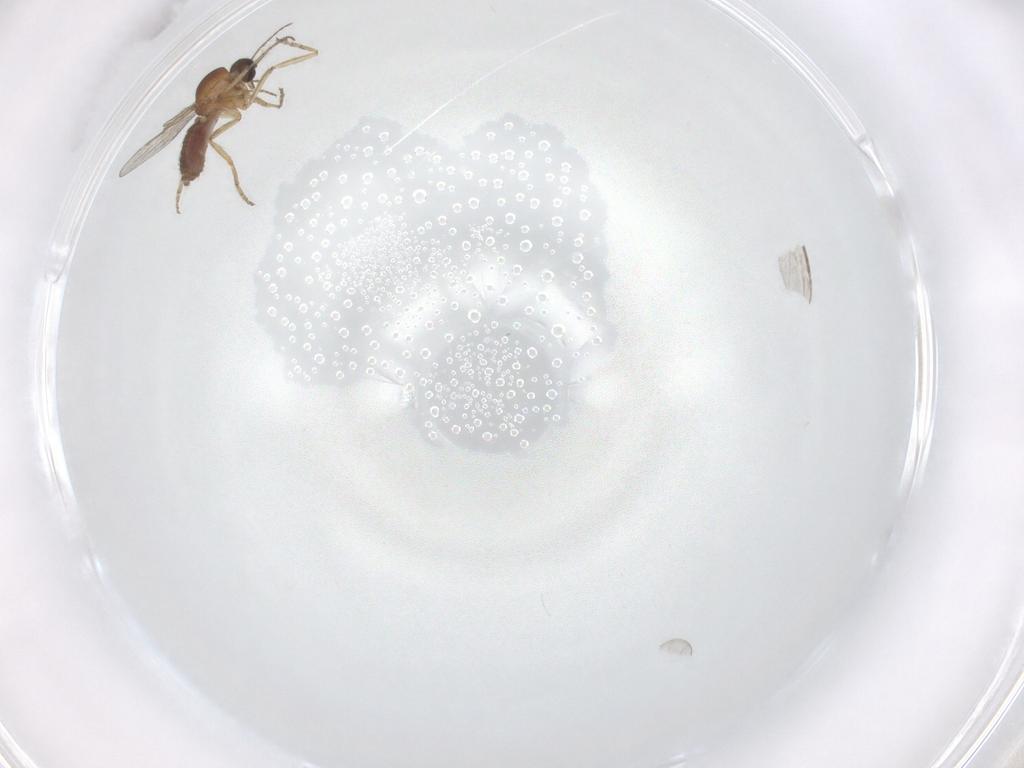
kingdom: Animalia
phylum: Arthropoda
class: Insecta
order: Diptera
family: Ceratopogonidae
